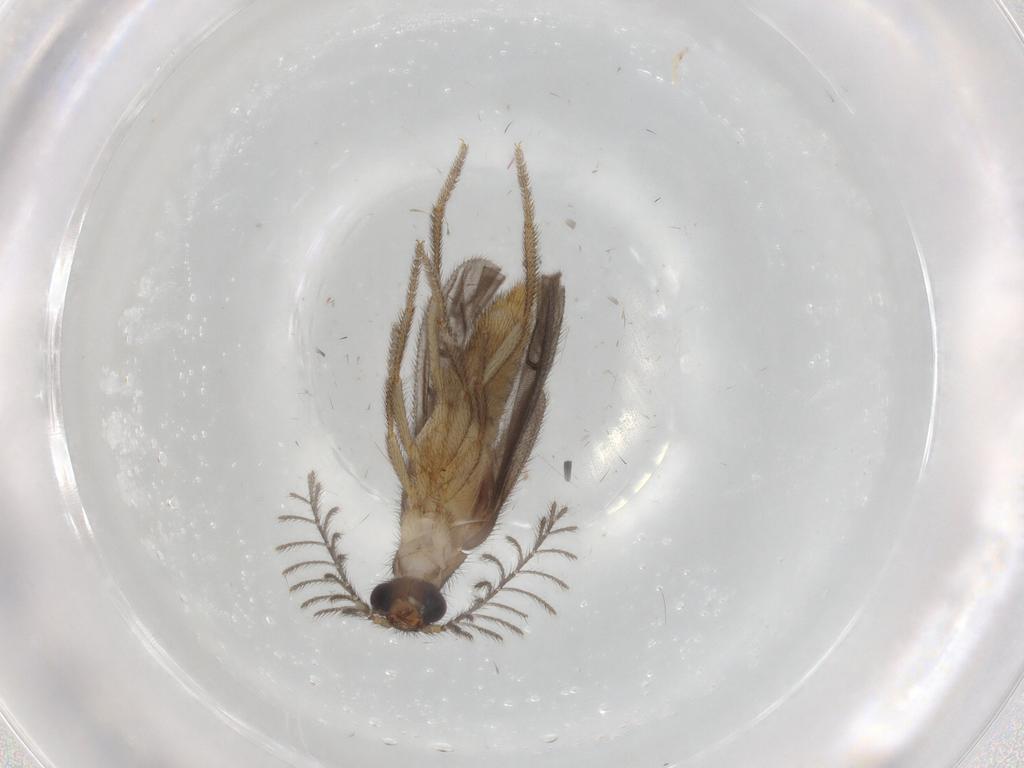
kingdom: Animalia
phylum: Arthropoda
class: Insecta
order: Coleoptera
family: Phengodidae
